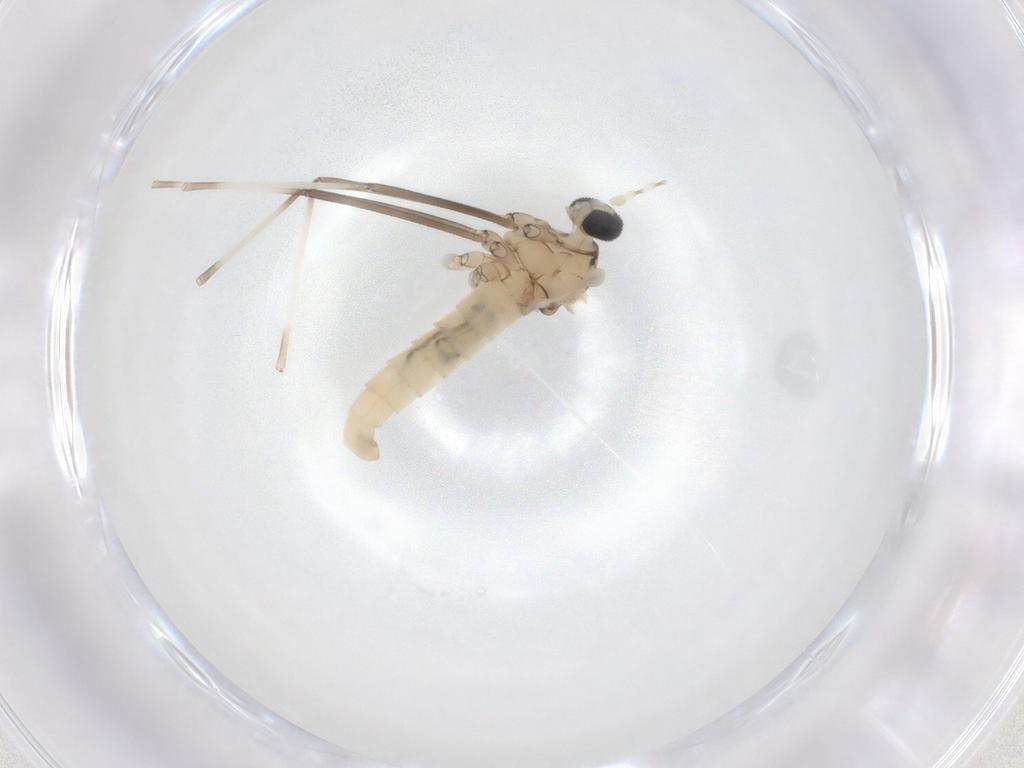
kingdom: Animalia
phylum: Arthropoda
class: Insecta
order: Diptera
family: Cecidomyiidae
